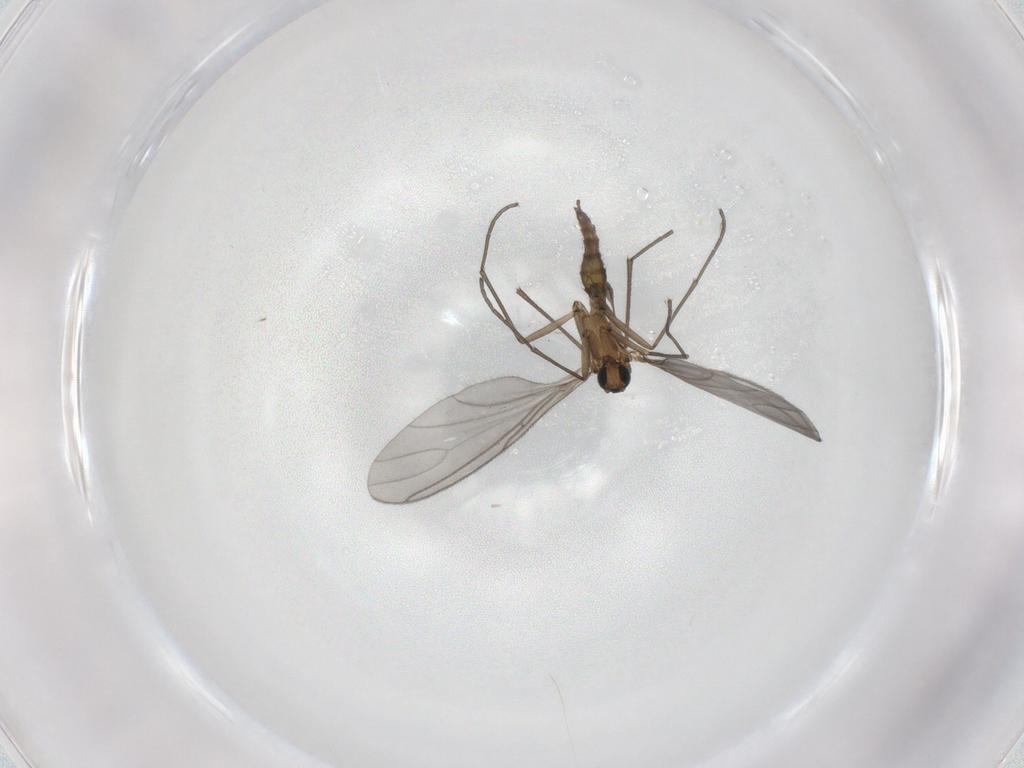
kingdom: Animalia
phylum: Arthropoda
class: Insecta
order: Diptera
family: Sciaridae
